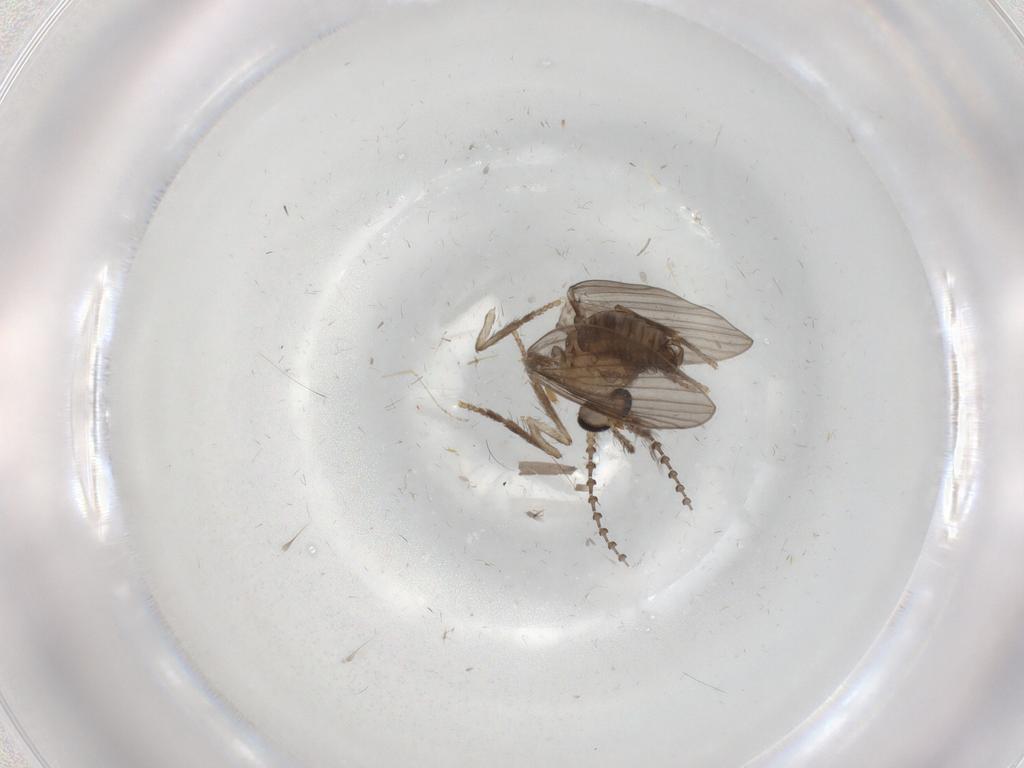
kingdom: Animalia
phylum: Arthropoda
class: Insecta
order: Diptera
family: Psychodidae
